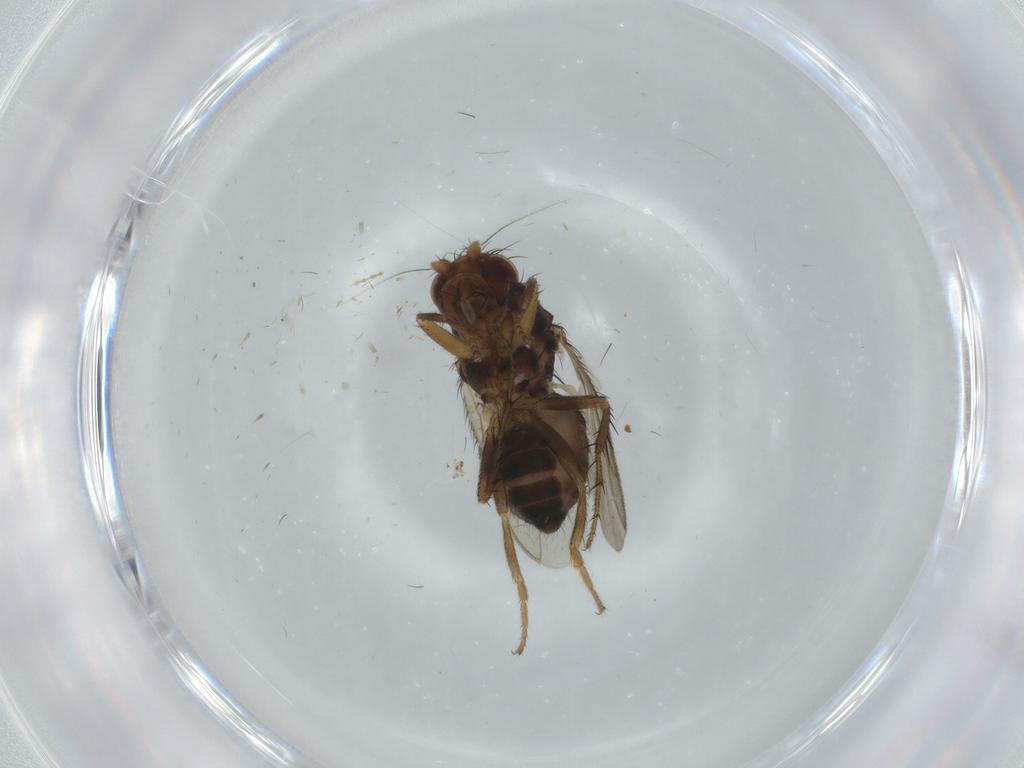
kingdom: Animalia
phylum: Arthropoda
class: Insecta
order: Diptera
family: Sphaeroceridae
